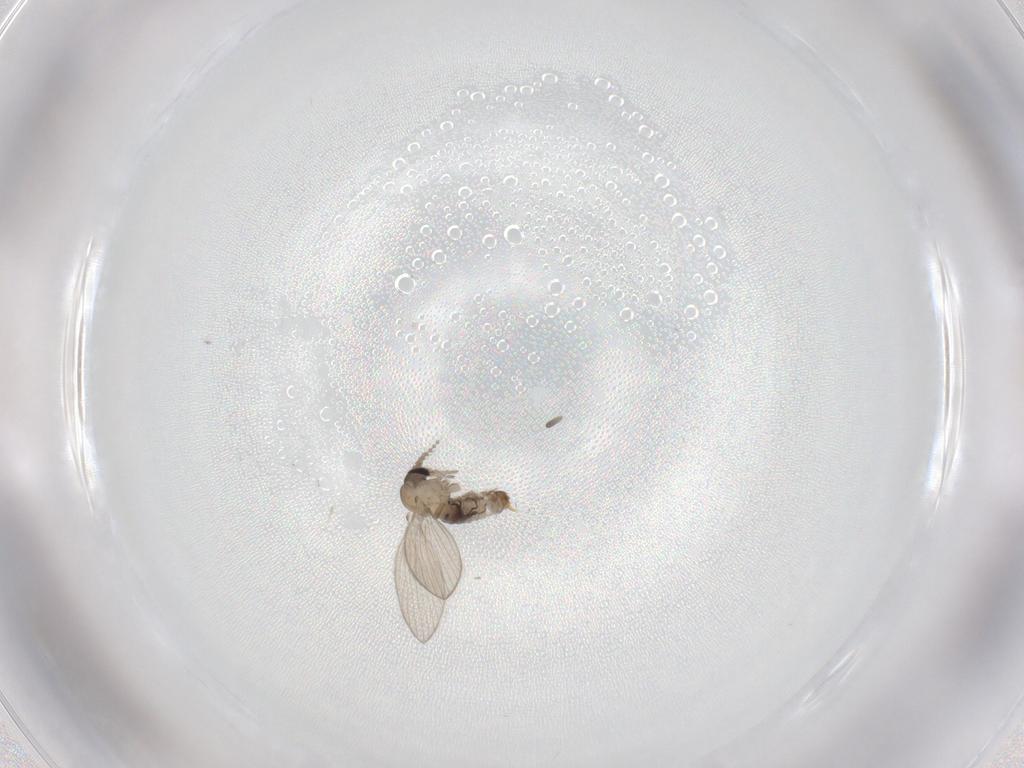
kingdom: Animalia
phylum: Arthropoda
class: Insecta
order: Diptera
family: Psychodidae
